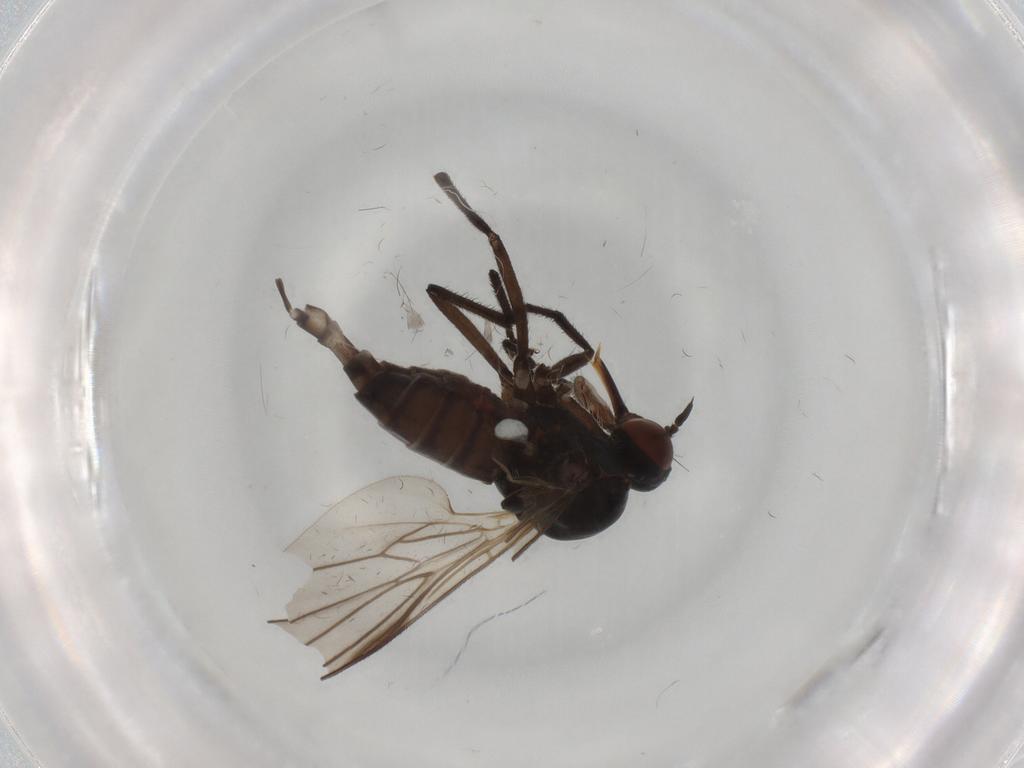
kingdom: Animalia
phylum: Arthropoda
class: Insecta
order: Diptera
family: Empididae
